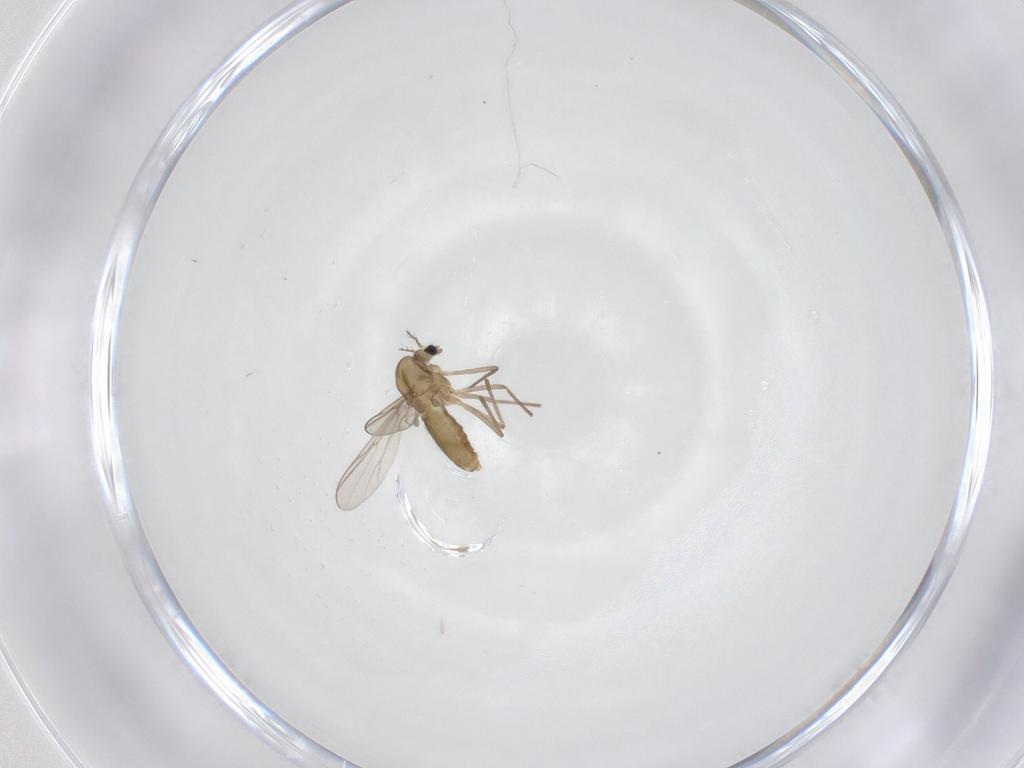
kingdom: Animalia
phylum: Arthropoda
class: Insecta
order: Diptera
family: Chironomidae
